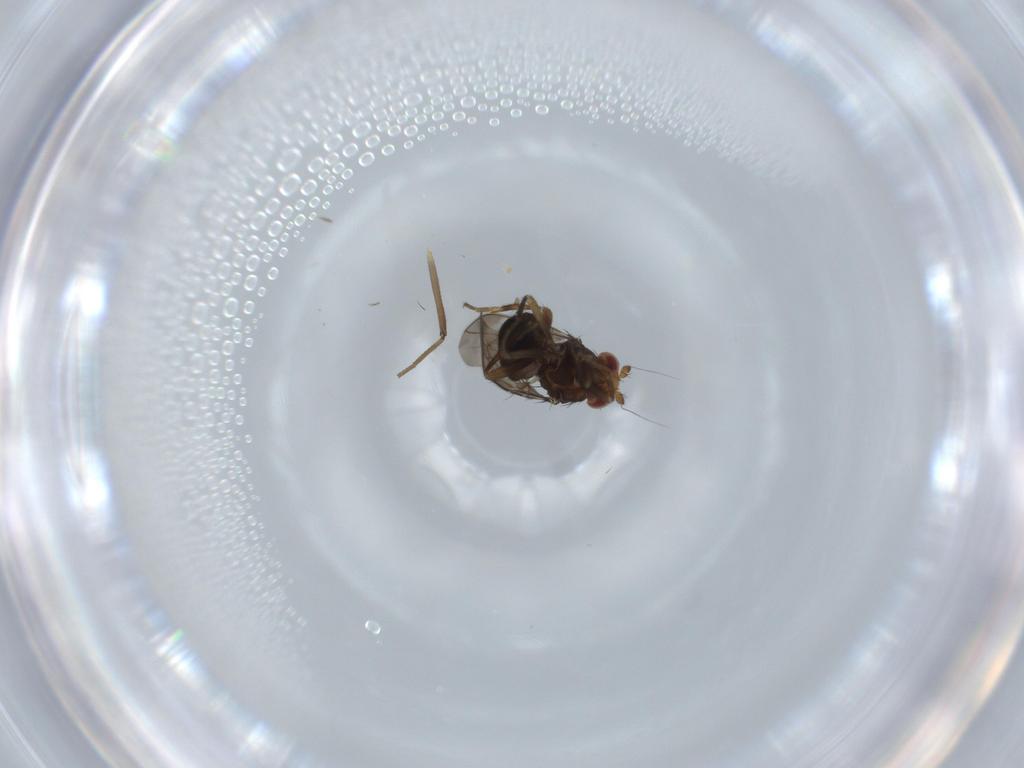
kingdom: Animalia
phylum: Arthropoda
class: Insecta
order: Diptera
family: Chironomidae
